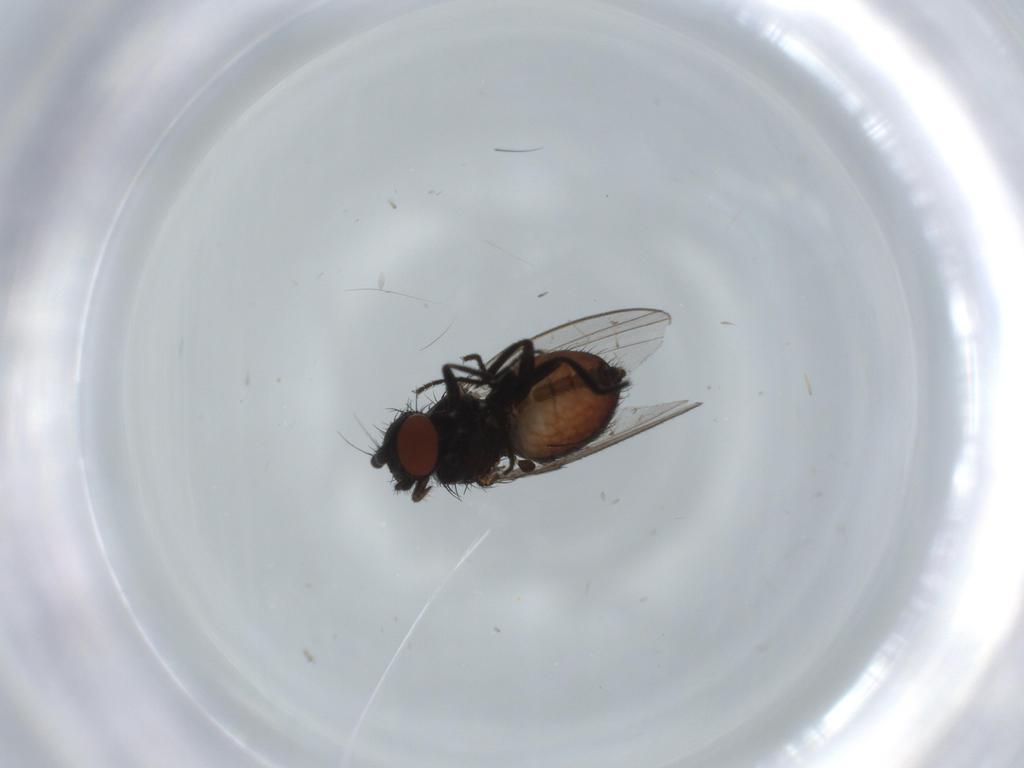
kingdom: Animalia
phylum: Arthropoda
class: Insecta
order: Diptera
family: Milichiidae
